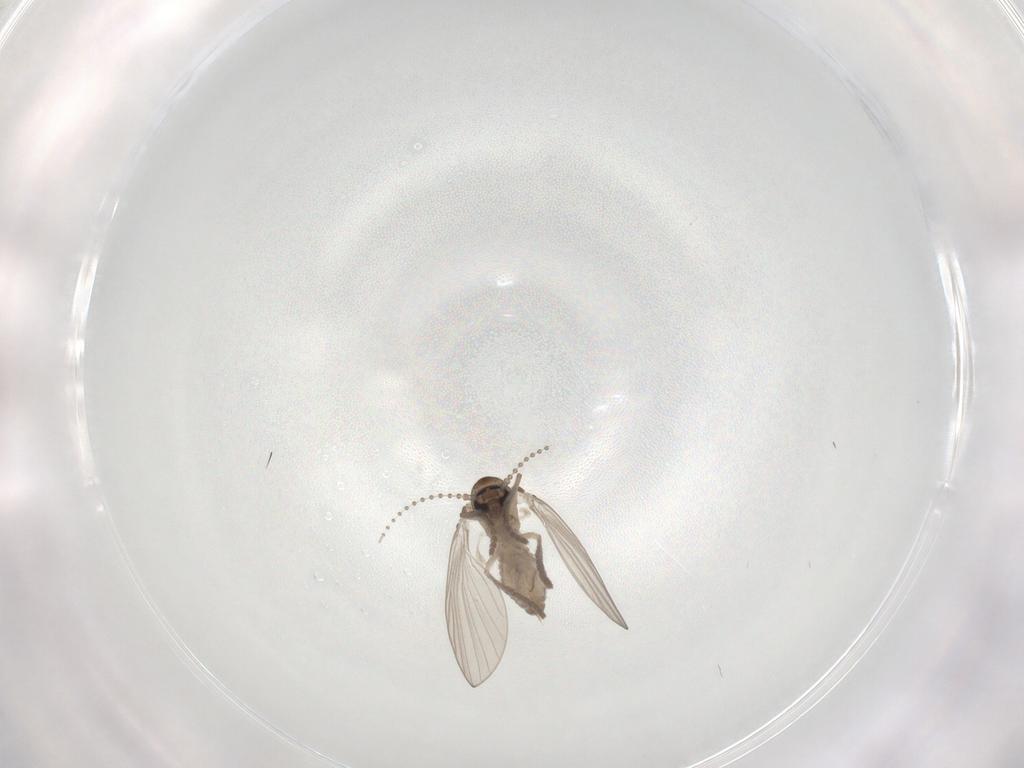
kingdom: Animalia
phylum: Arthropoda
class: Insecta
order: Diptera
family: Psychodidae
